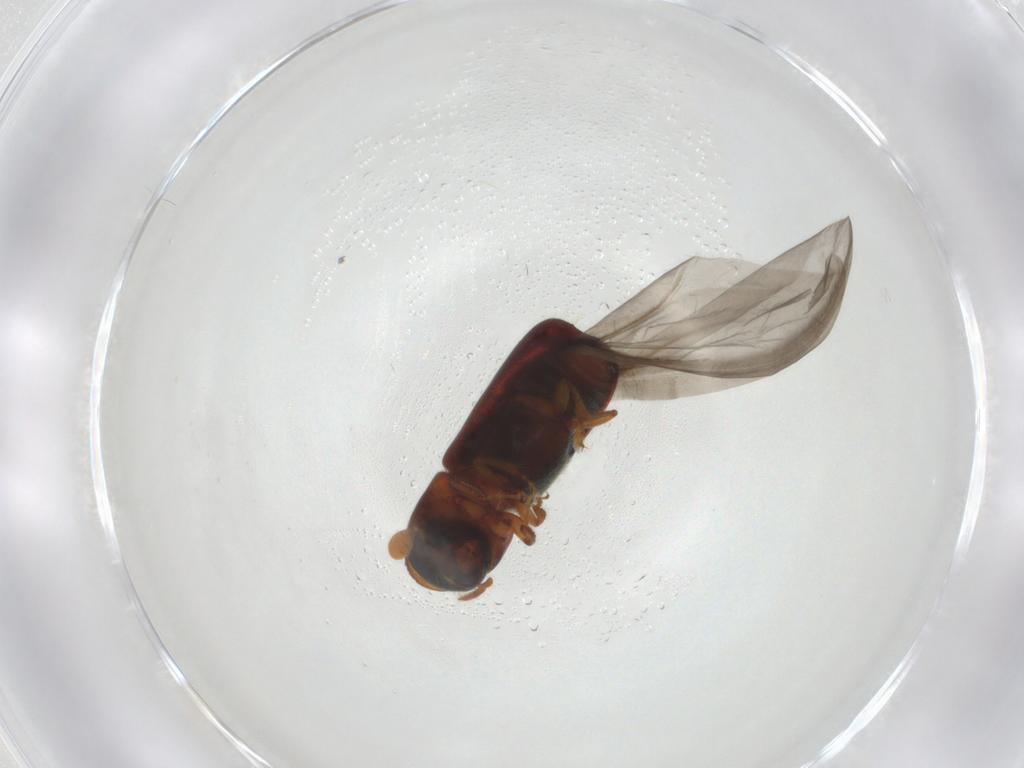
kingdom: Animalia
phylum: Arthropoda
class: Insecta
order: Coleoptera
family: Curculionidae
